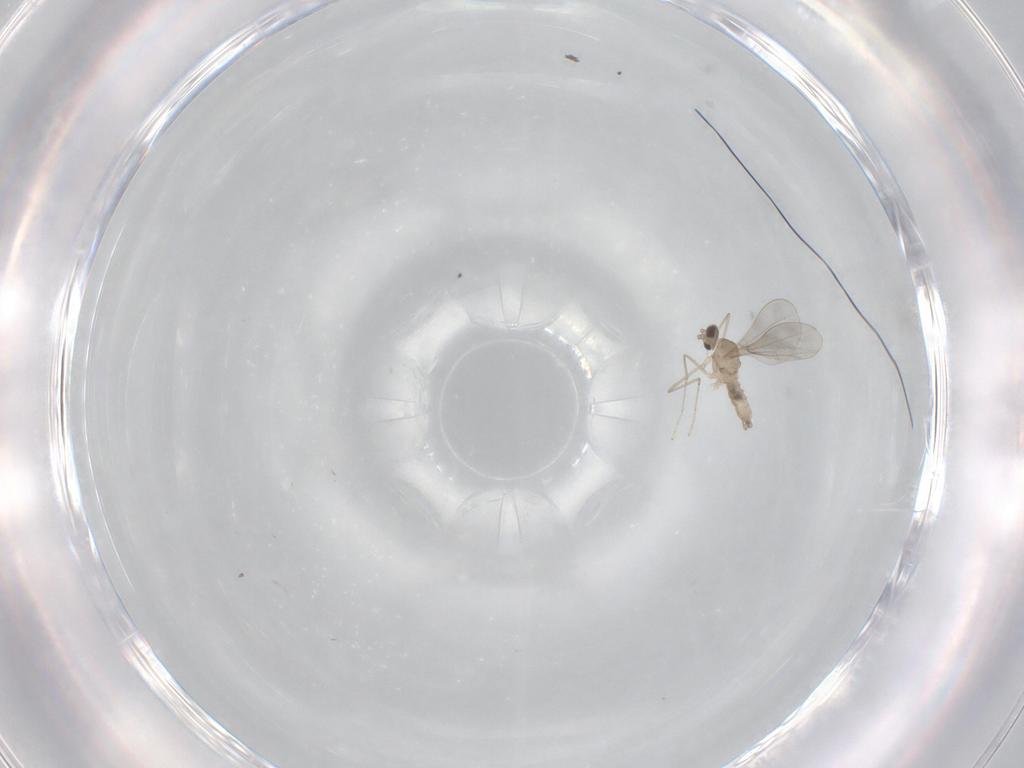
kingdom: Animalia
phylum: Arthropoda
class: Insecta
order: Diptera
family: Cecidomyiidae
